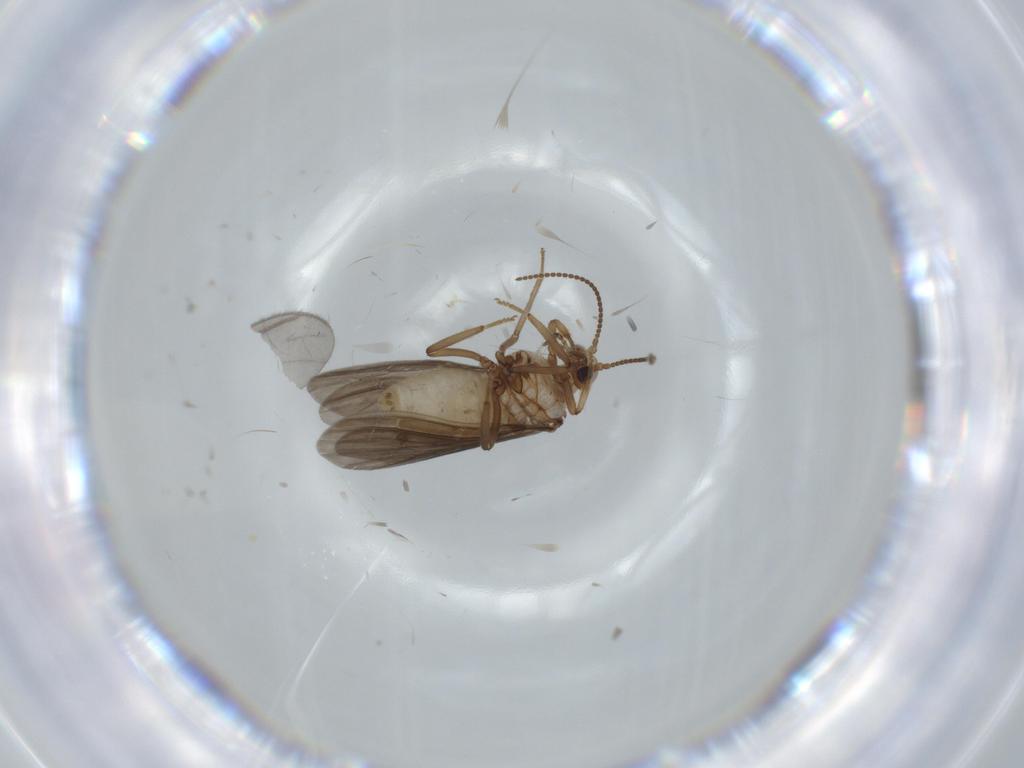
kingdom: Animalia
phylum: Arthropoda
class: Insecta
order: Neuroptera
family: Coniopterygidae
